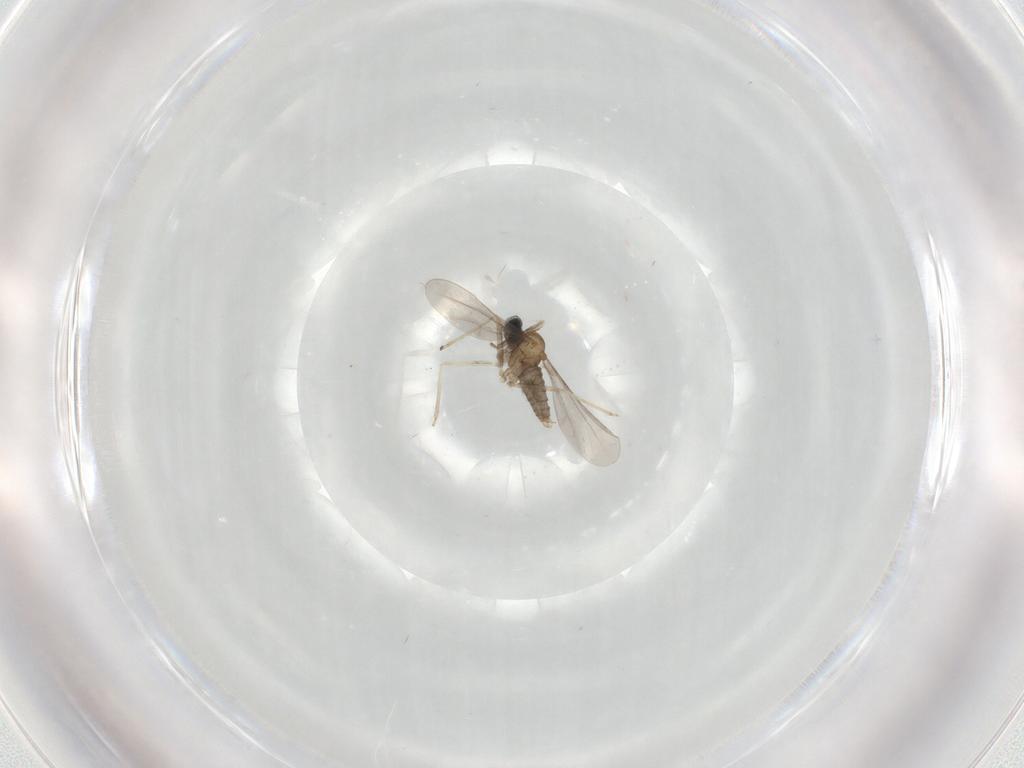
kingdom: Animalia
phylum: Arthropoda
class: Insecta
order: Diptera
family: Cecidomyiidae
